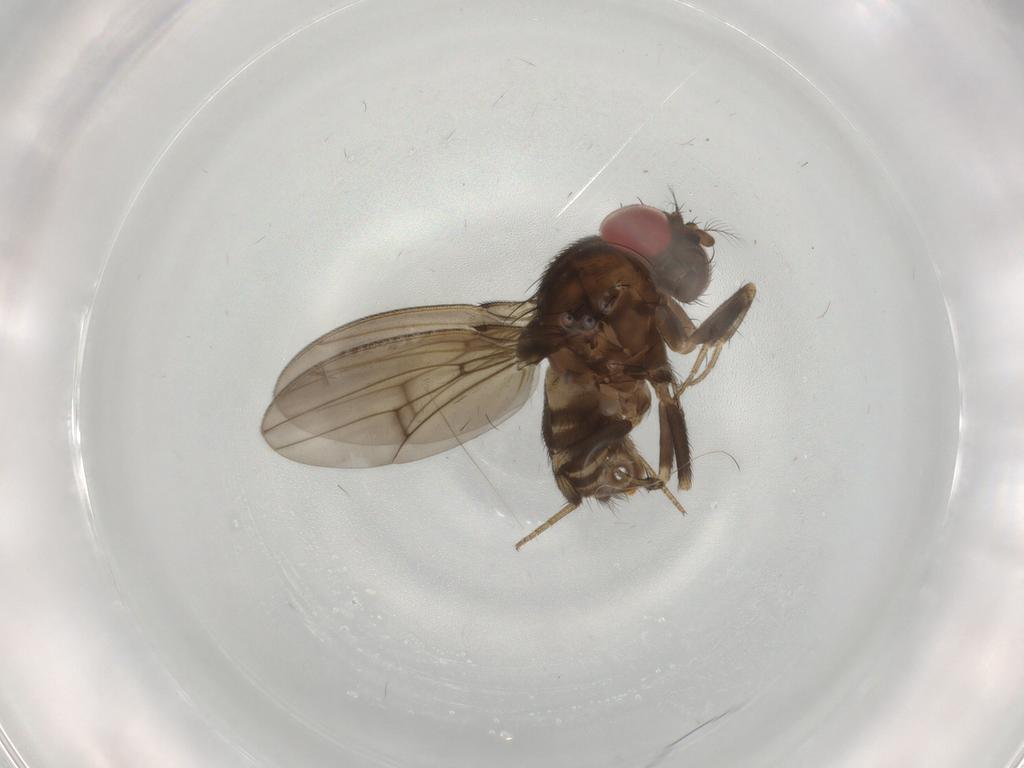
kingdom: Animalia
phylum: Arthropoda
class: Insecta
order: Diptera
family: Drosophilidae
